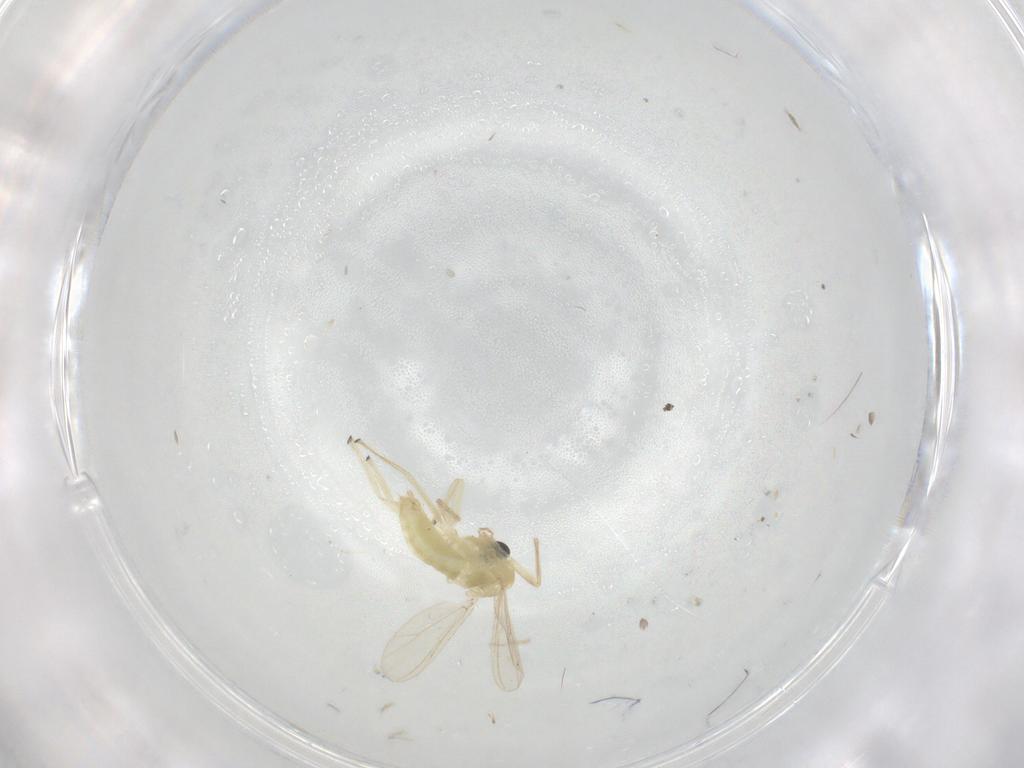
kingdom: Animalia
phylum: Arthropoda
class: Insecta
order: Diptera
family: Chironomidae
